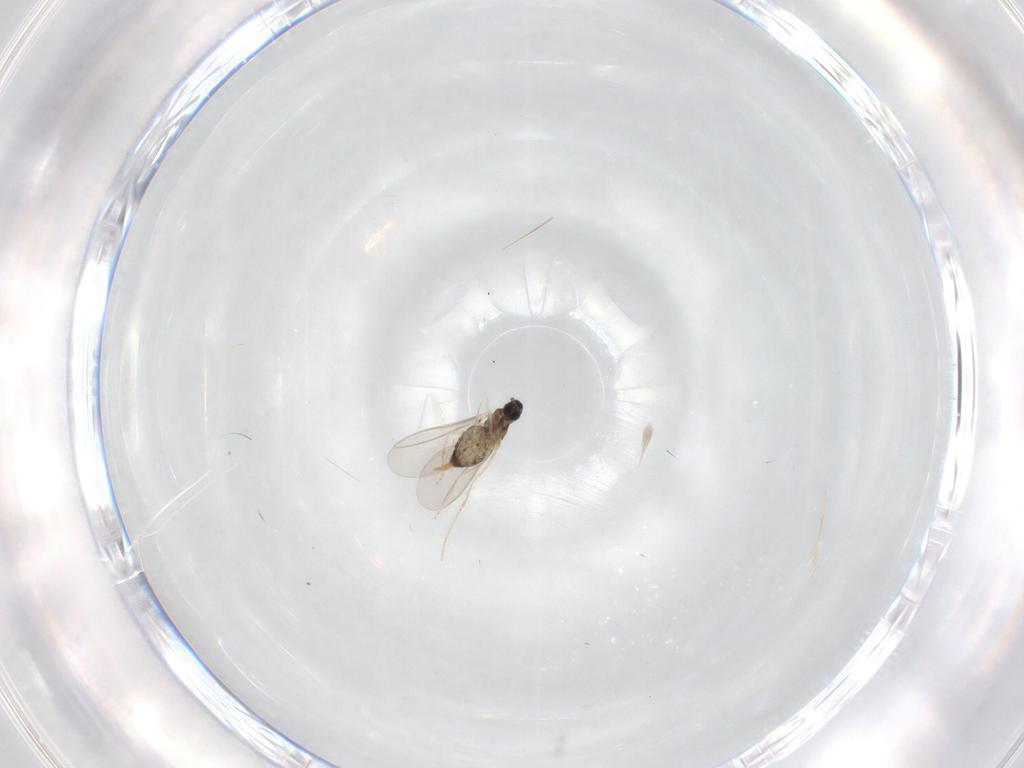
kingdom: Animalia
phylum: Arthropoda
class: Insecta
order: Diptera
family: Cecidomyiidae
